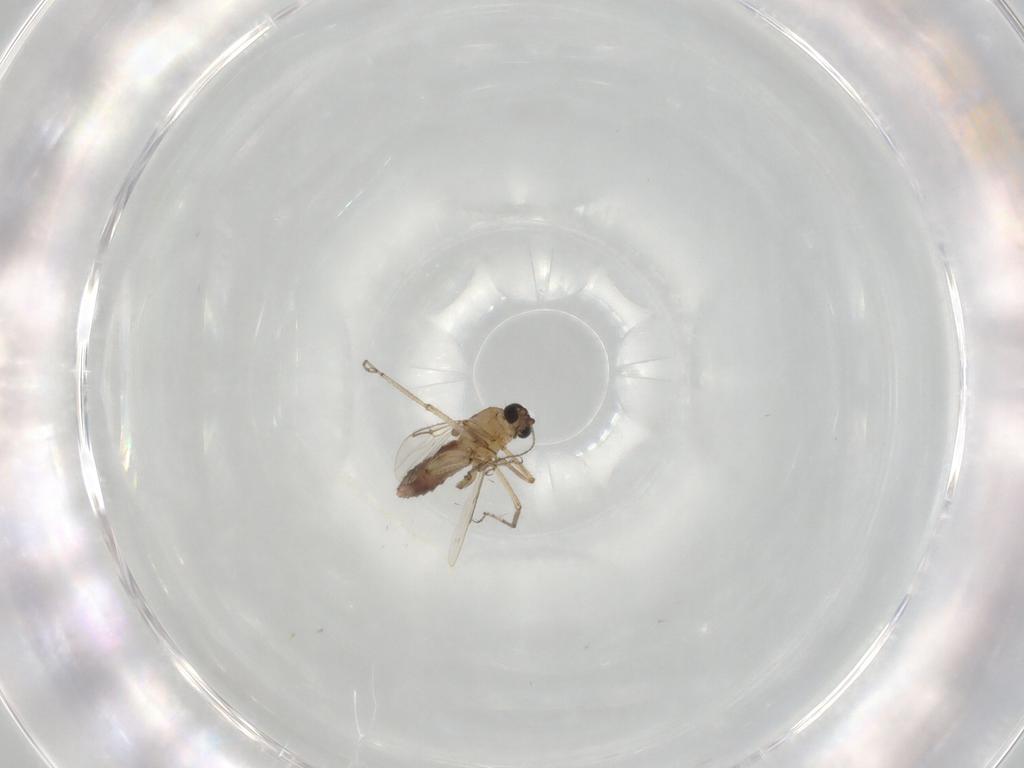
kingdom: Animalia
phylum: Arthropoda
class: Insecta
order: Diptera
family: Ceratopogonidae
